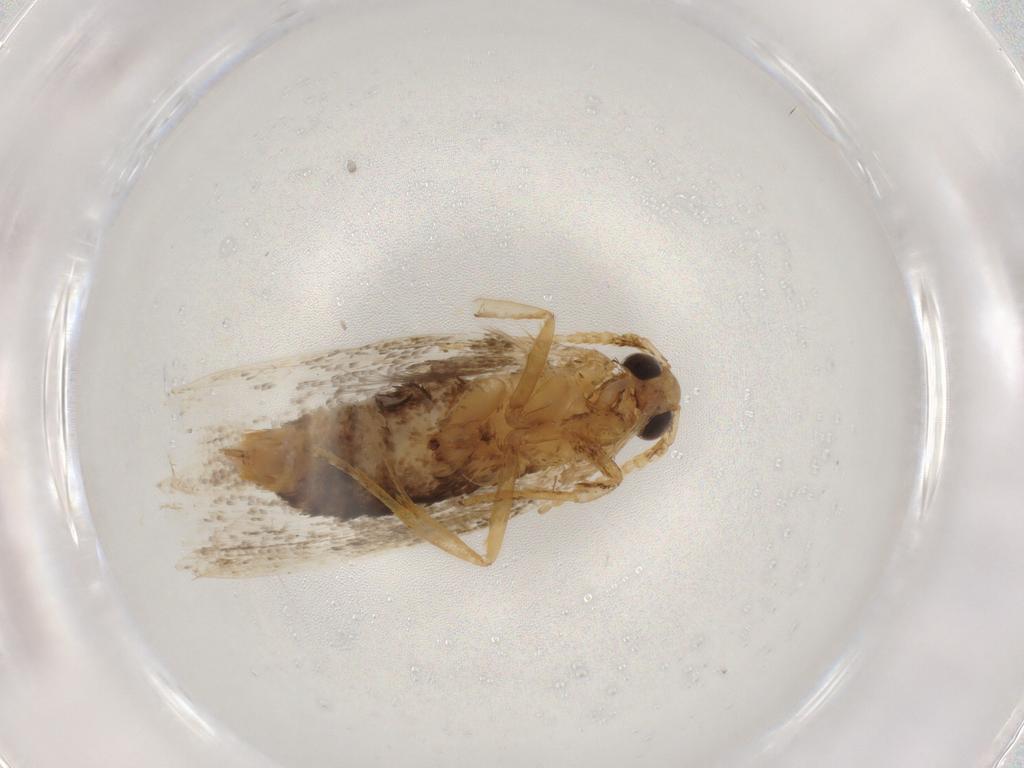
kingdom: Animalia
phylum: Arthropoda
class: Insecta
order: Lepidoptera
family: Lecithoceridae
